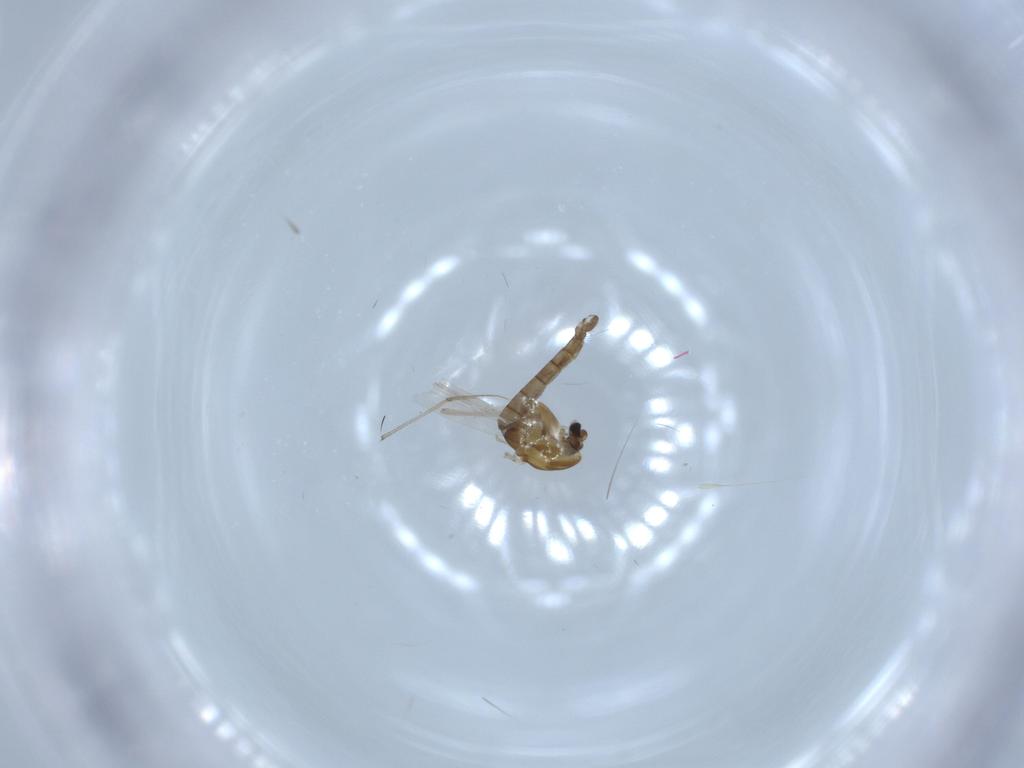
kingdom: Animalia
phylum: Arthropoda
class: Insecta
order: Diptera
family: Chironomidae
